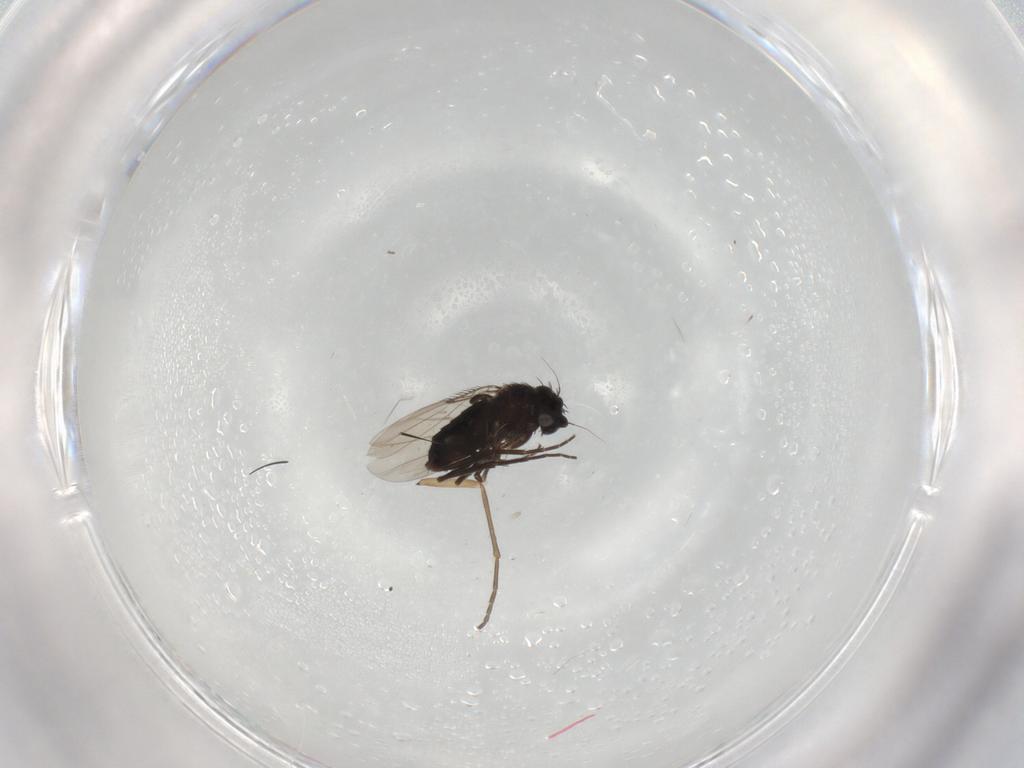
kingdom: Animalia
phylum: Arthropoda
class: Insecta
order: Diptera
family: Phoridae
